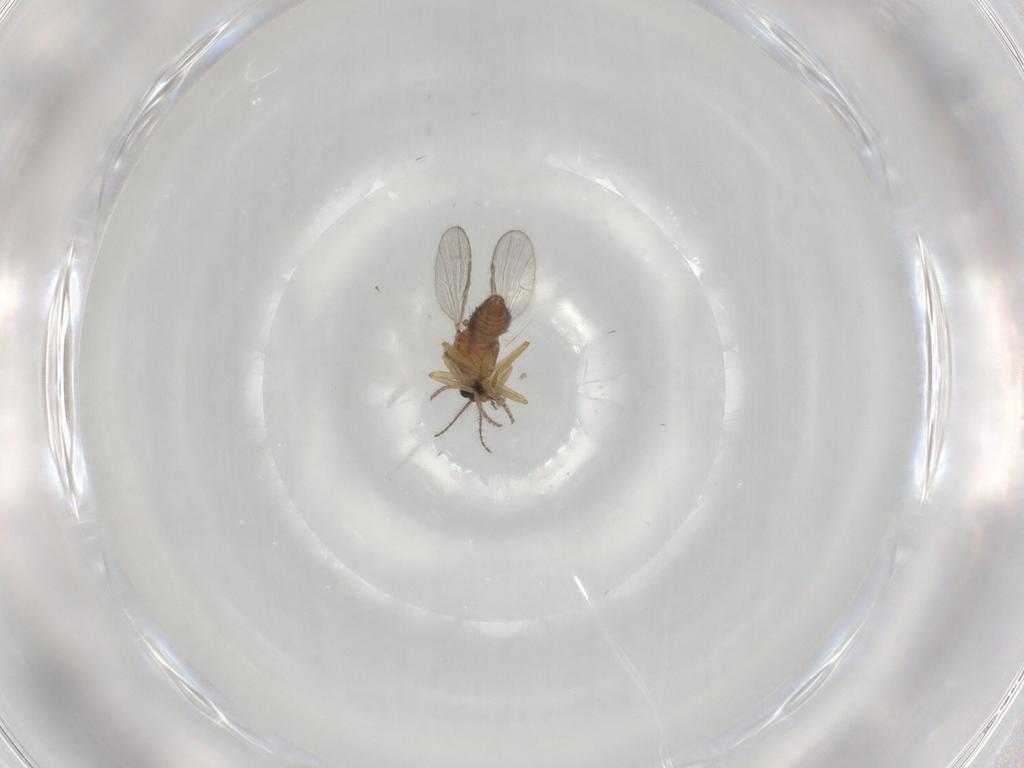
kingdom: Animalia
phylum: Arthropoda
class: Insecta
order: Diptera
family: Ceratopogonidae
